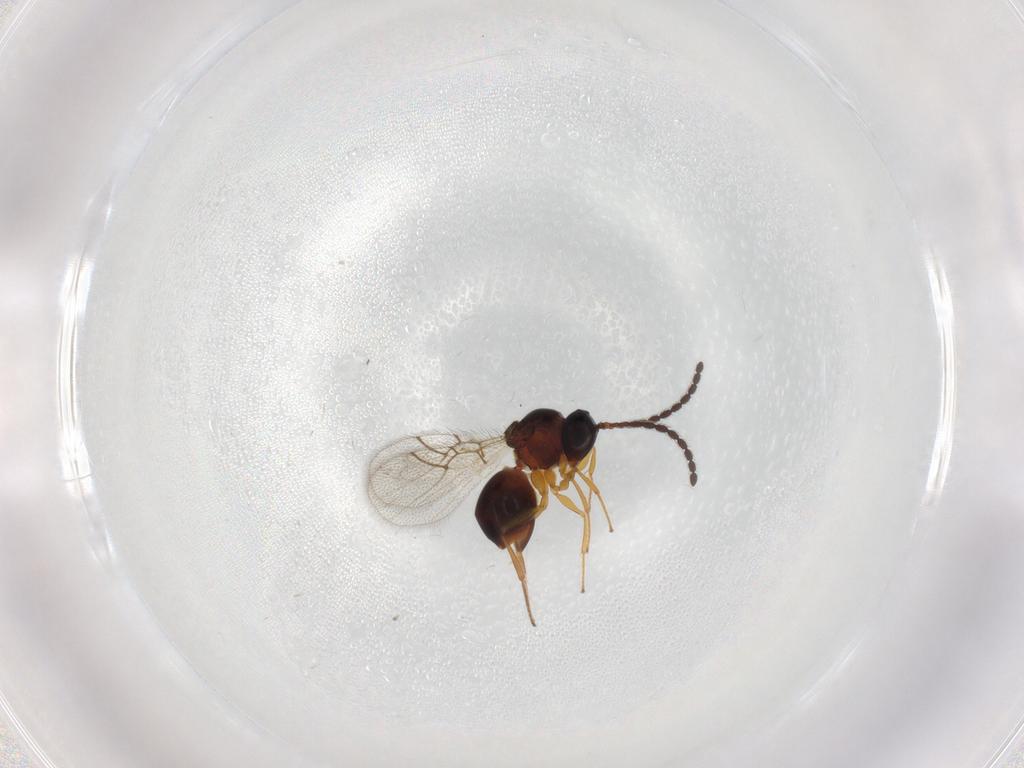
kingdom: Animalia
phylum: Arthropoda
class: Insecta
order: Hymenoptera
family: Figitidae
